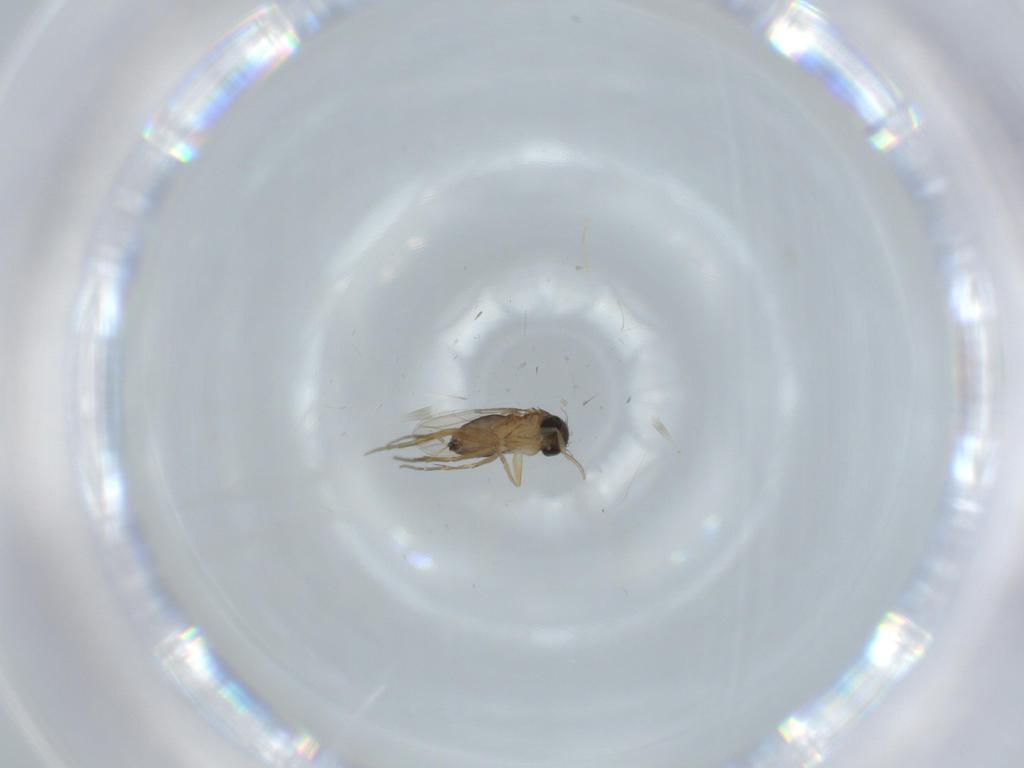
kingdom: Animalia
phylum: Arthropoda
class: Insecta
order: Diptera
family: Phoridae
